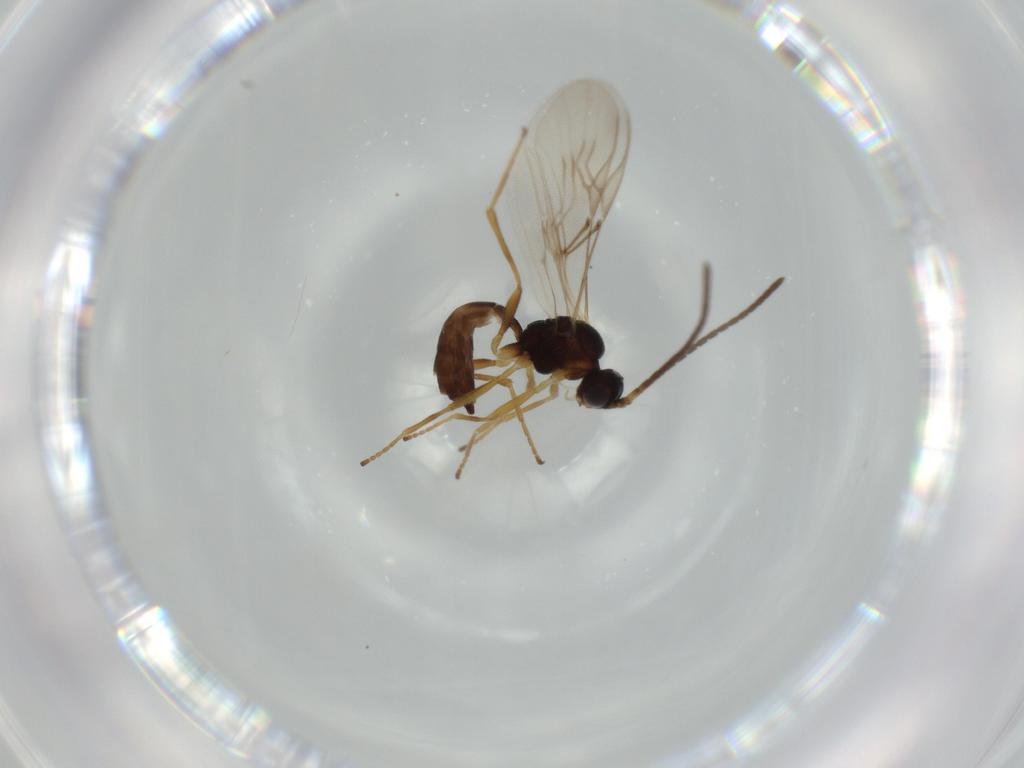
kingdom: Animalia
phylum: Arthropoda
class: Insecta
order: Hymenoptera
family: Braconidae
